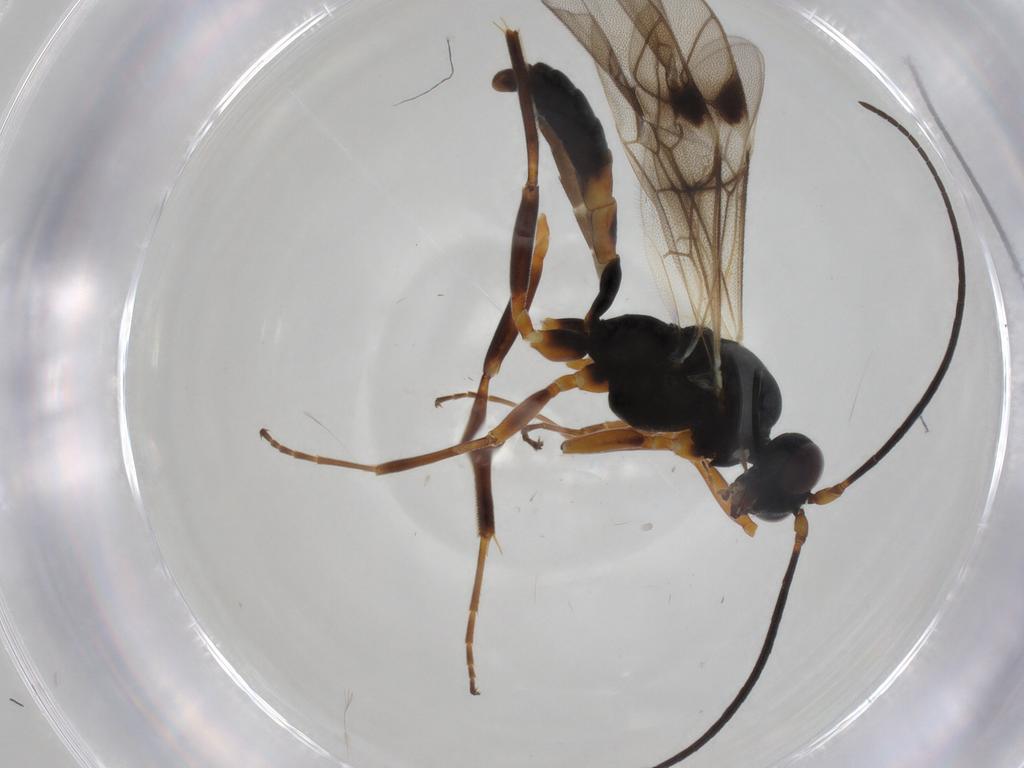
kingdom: Animalia
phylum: Arthropoda
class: Insecta
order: Hymenoptera
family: Ichneumonidae
